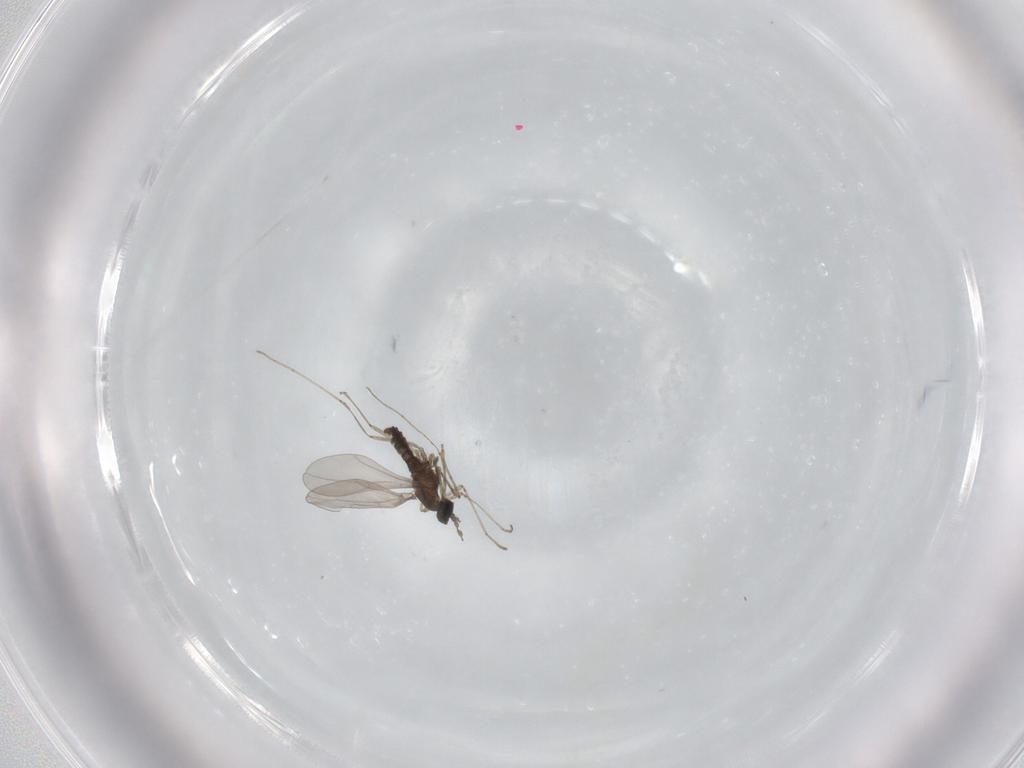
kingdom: Animalia
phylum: Arthropoda
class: Insecta
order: Diptera
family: Cecidomyiidae
